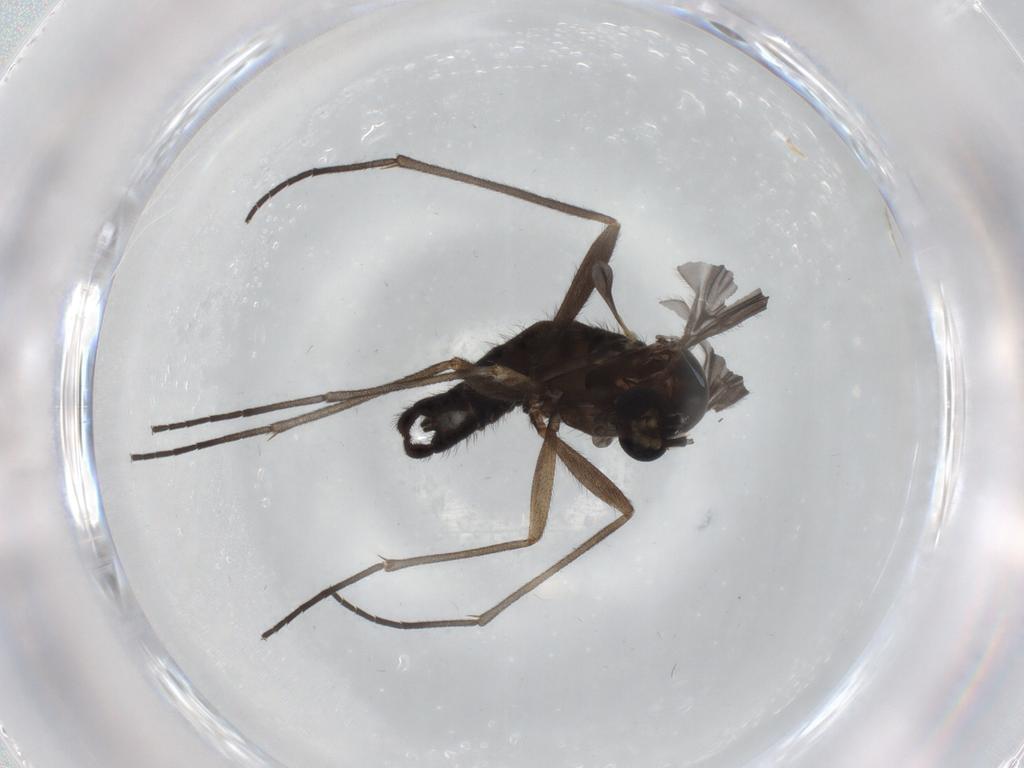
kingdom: Animalia
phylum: Arthropoda
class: Insecta
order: Diptera
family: Sciaridae
